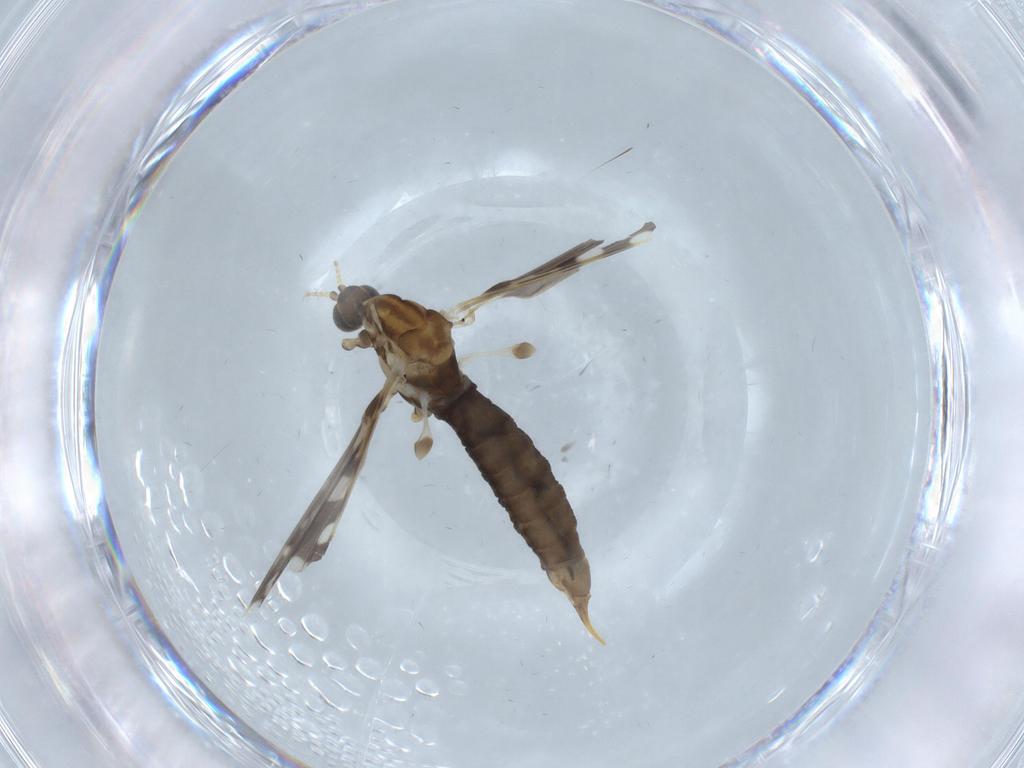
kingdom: Animalia
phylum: Arthropoda
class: Insecta
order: Diptera
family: Limoniidae
